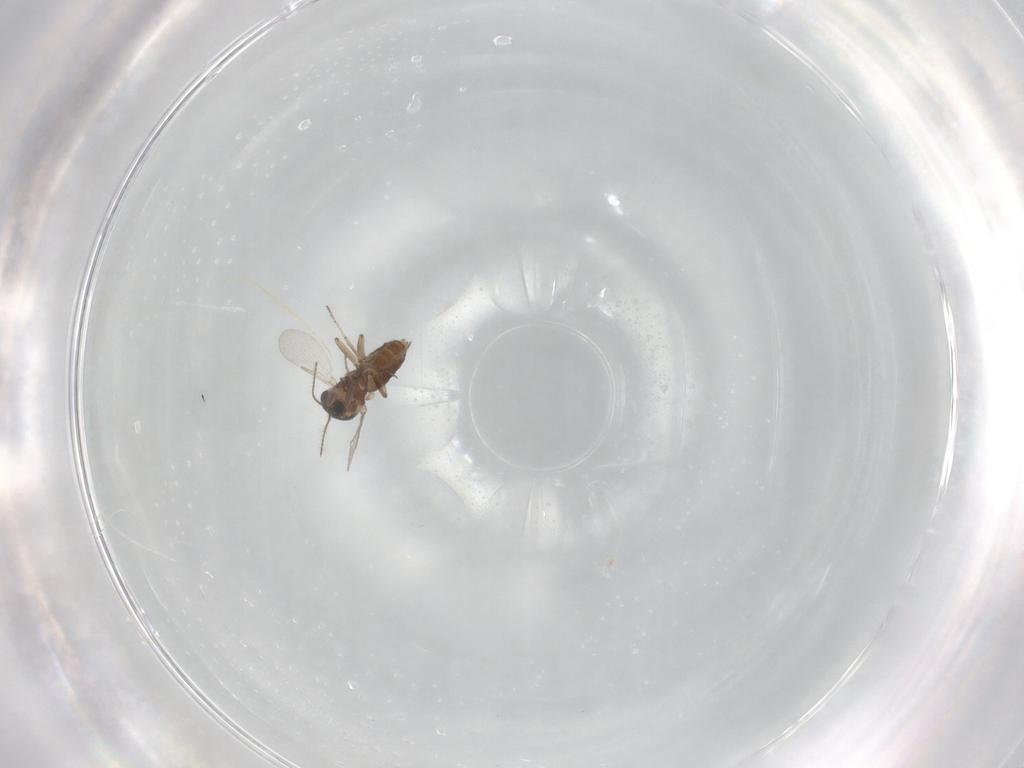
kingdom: Animalia
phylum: Arthropoda
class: Insecta
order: Diptera
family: Ceratopogonidae
